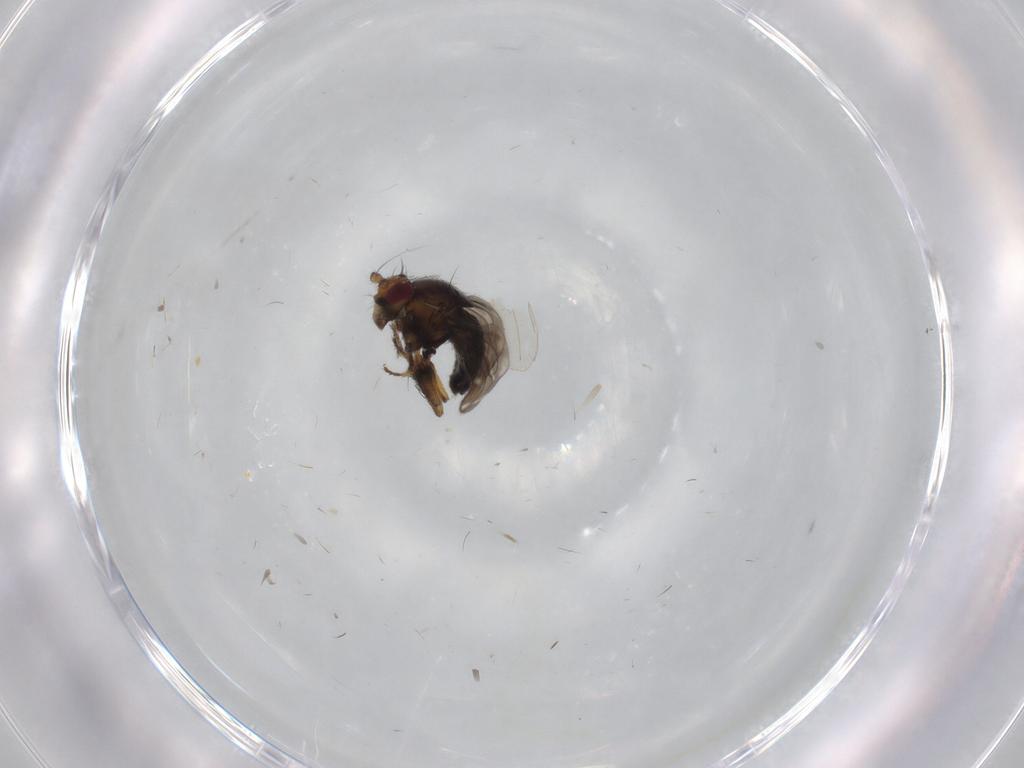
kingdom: Animalia
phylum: Arthropoda
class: Insecta
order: Diptera
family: Sphaeroceridae
